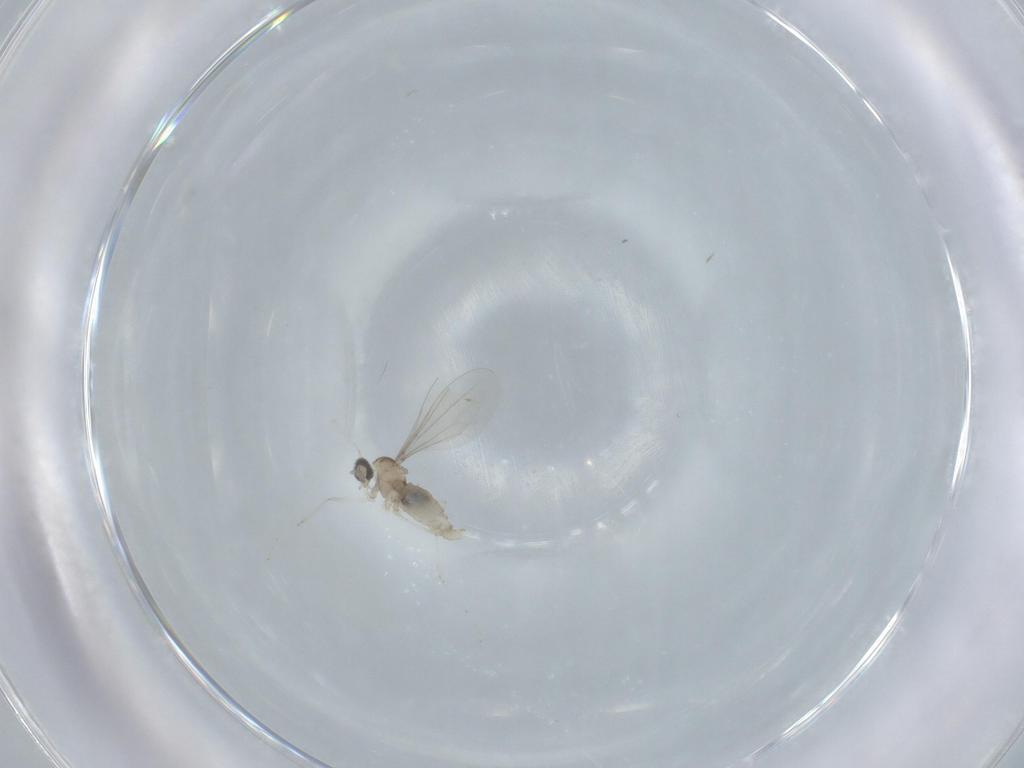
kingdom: Animalia
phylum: Arthropoda
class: Insecta
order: Diptera
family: Cecidomyiidae
